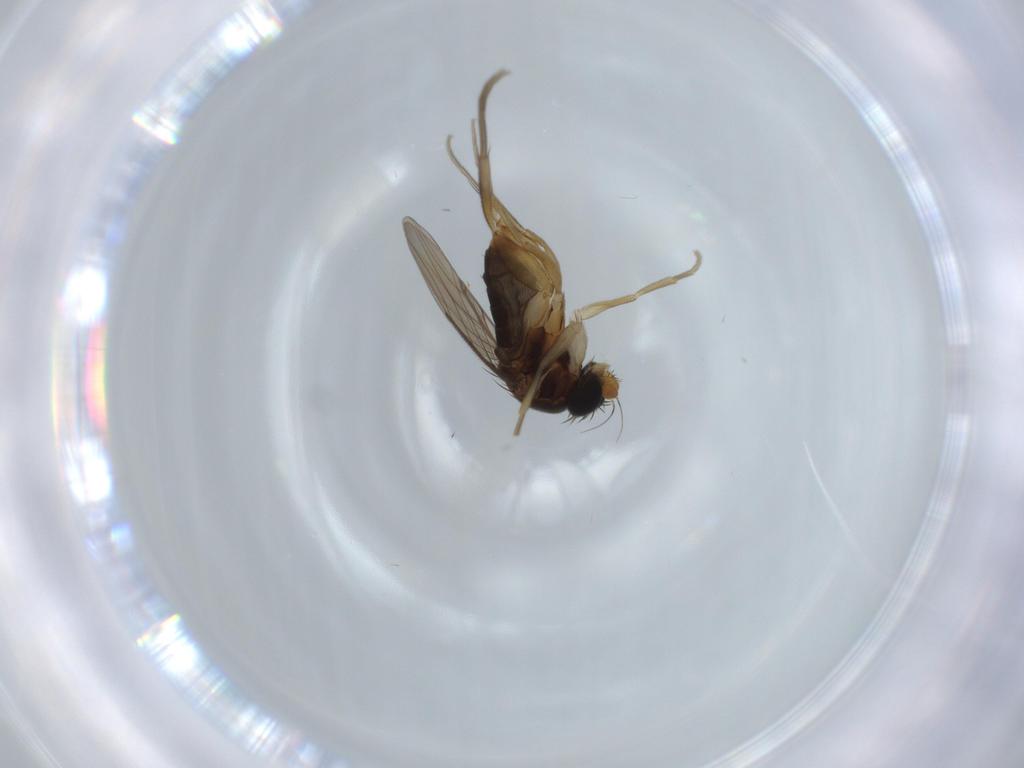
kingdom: Animalia
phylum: Arthropoda
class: Insecta
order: Diptera
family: Phoridae
